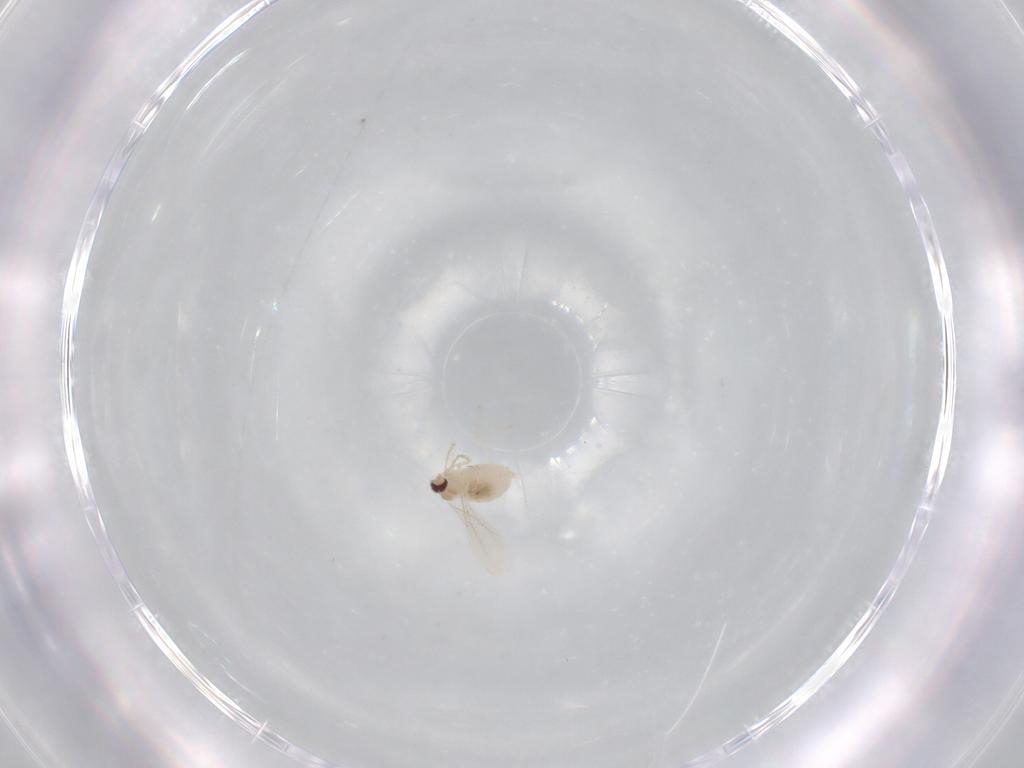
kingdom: Animalia
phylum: Arthropoda
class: Insecta
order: Diptera
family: Cecidomyiidae
